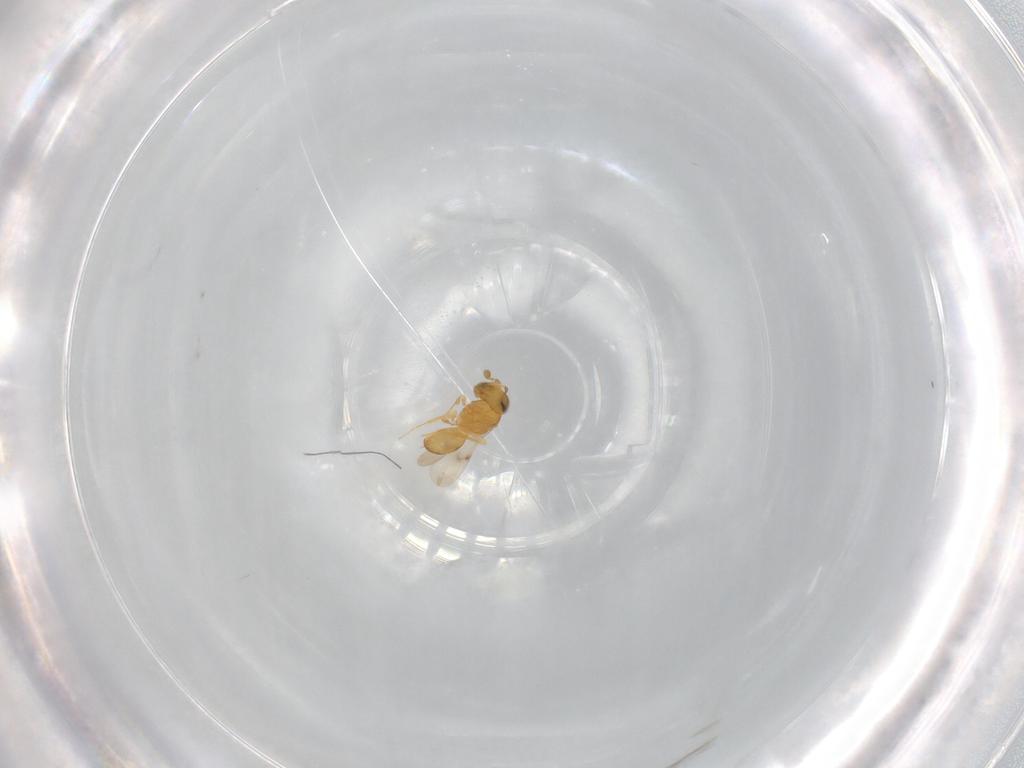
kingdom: Animalia
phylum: Arthropoda
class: Insecta
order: Hymenoptera
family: Scelionidae
